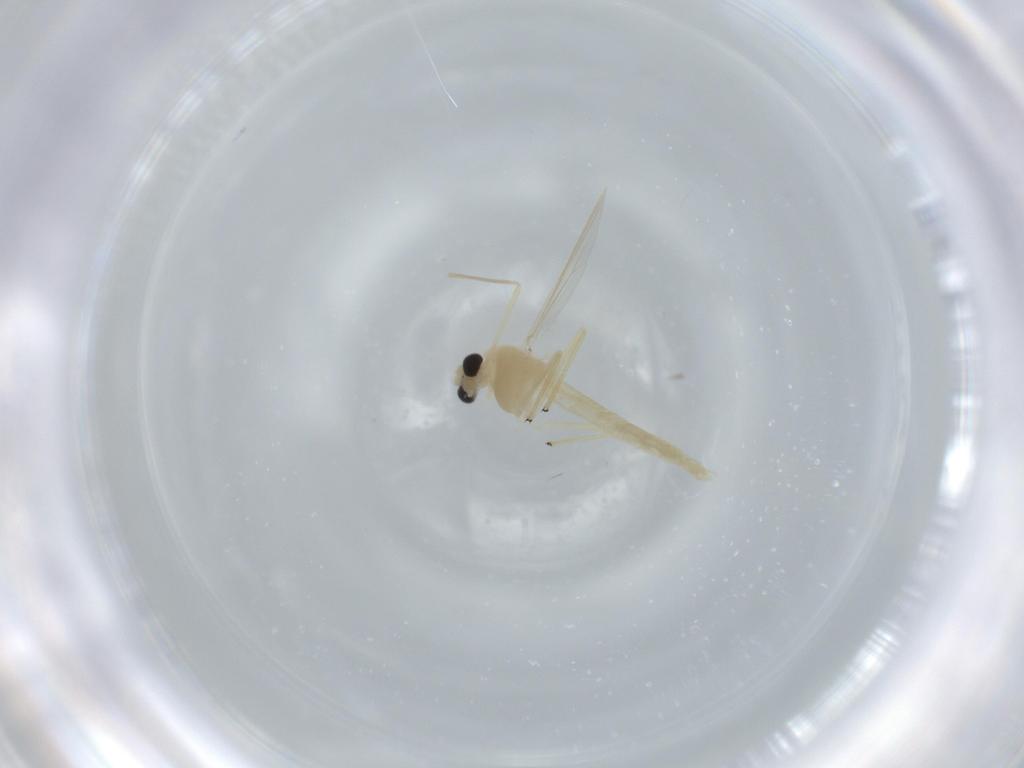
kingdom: Animalia
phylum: Arthropoda
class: Insecta
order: Diptera
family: Chironomidae
